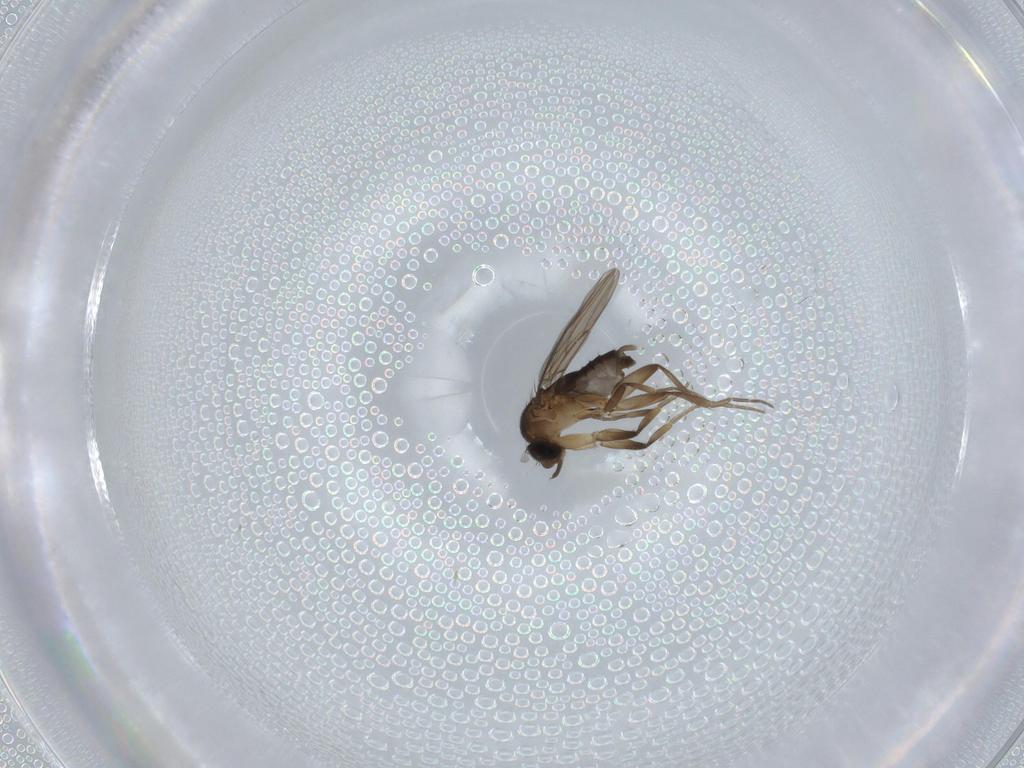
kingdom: Animalia
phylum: Arthropoda
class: Insecta
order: Diptera
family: Phoridae
